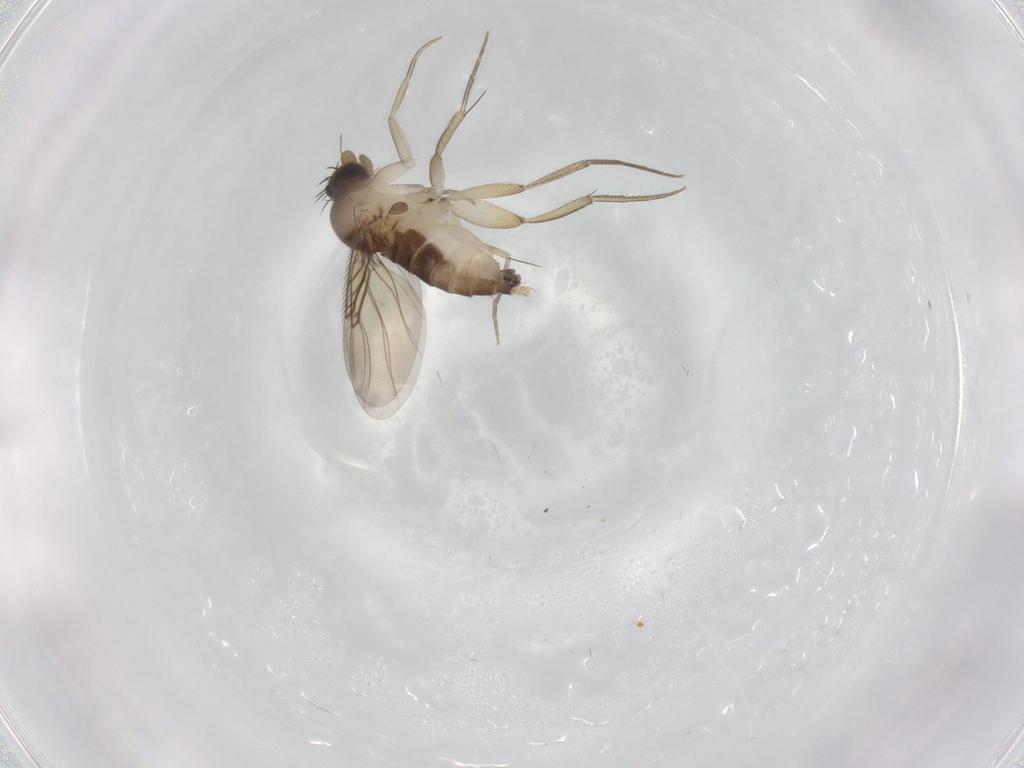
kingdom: Animalia
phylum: Arthropoda
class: Insecta
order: Diptera
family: Phoridae
